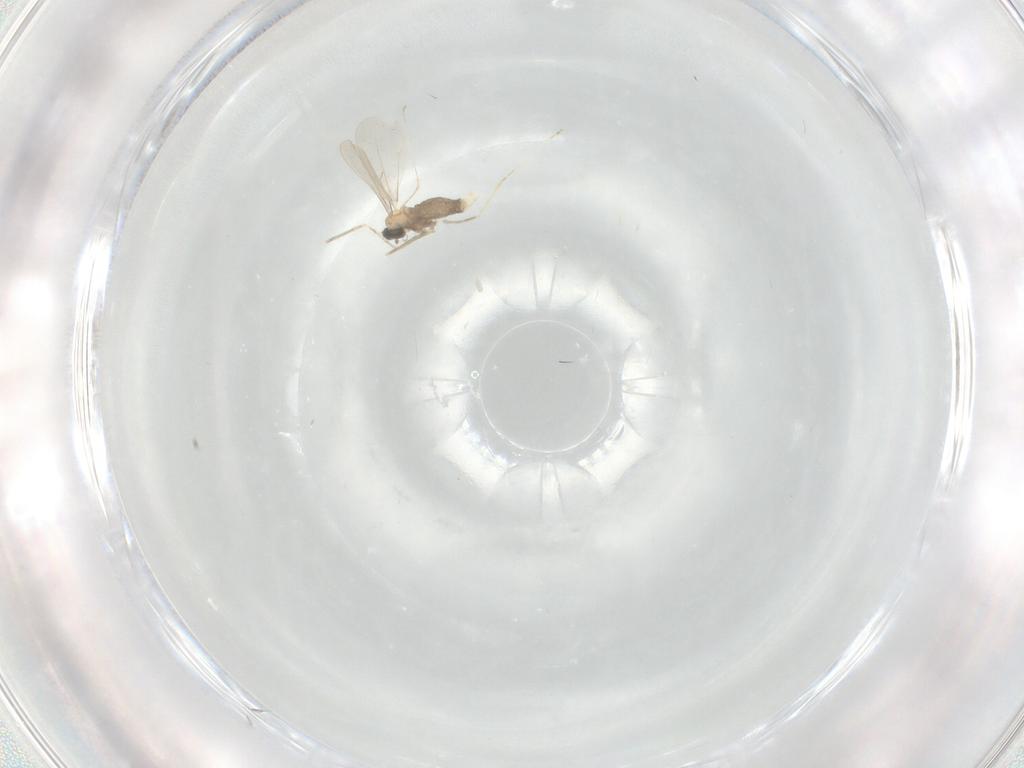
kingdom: Animalia
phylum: Arthropoda
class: Insecta
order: Diptera
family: Cecidomyiidae
